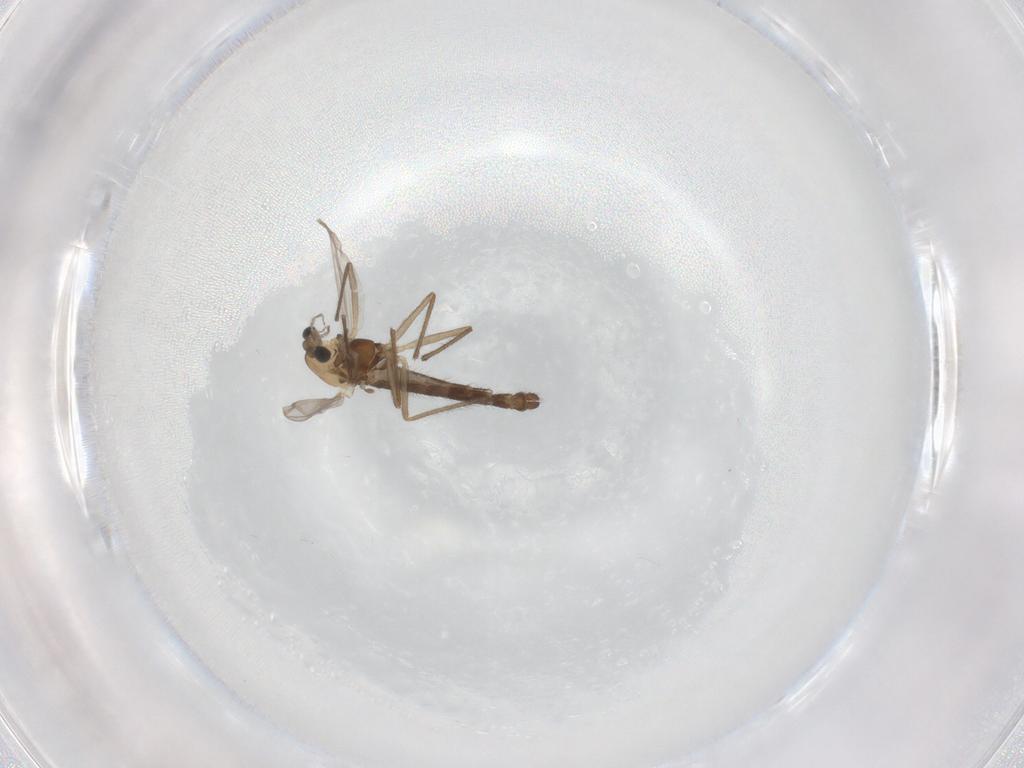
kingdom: Animalia
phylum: Arthropoda
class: Insecta
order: Diptera
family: Chironomidae
